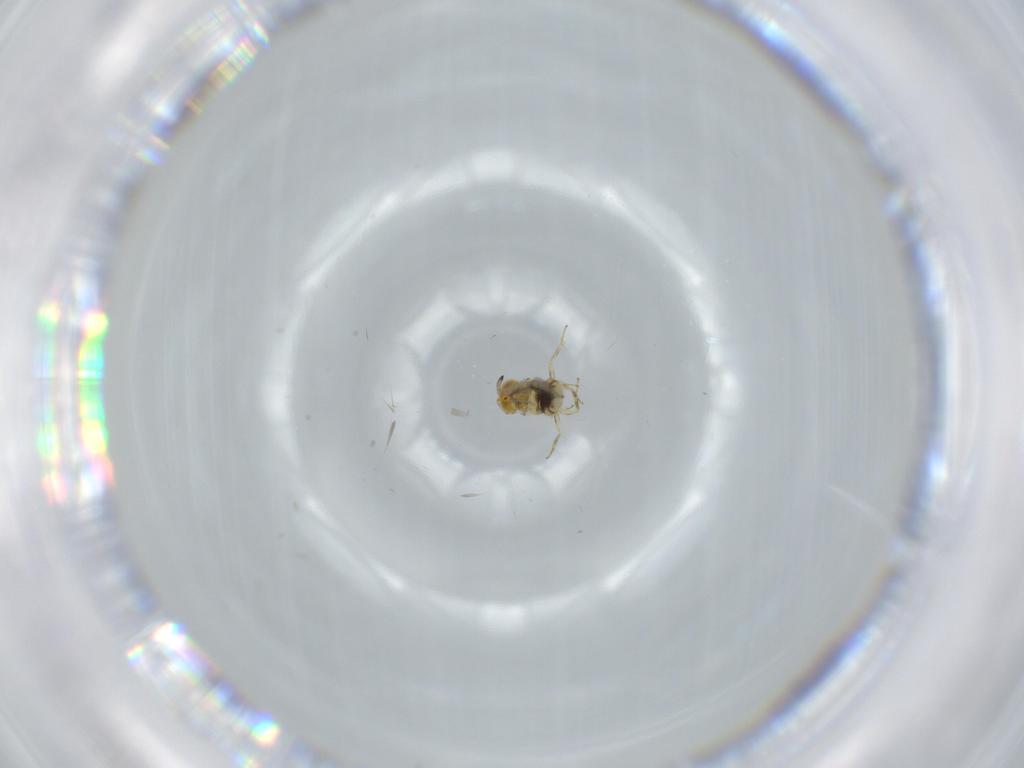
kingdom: Animalia
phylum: Arthropoda
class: Insecta
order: Hymenoptera
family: Aphelinidae
